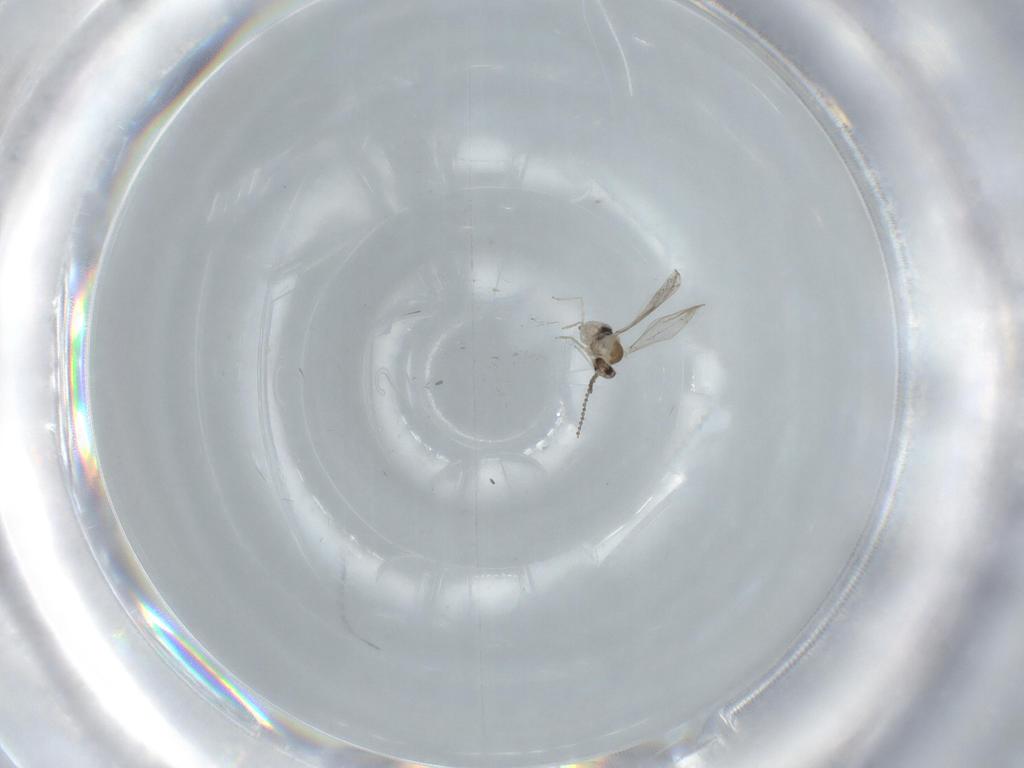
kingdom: Animalia
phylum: Arthropoda
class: Insecta
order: Diptera
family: Cecidomyiidae
